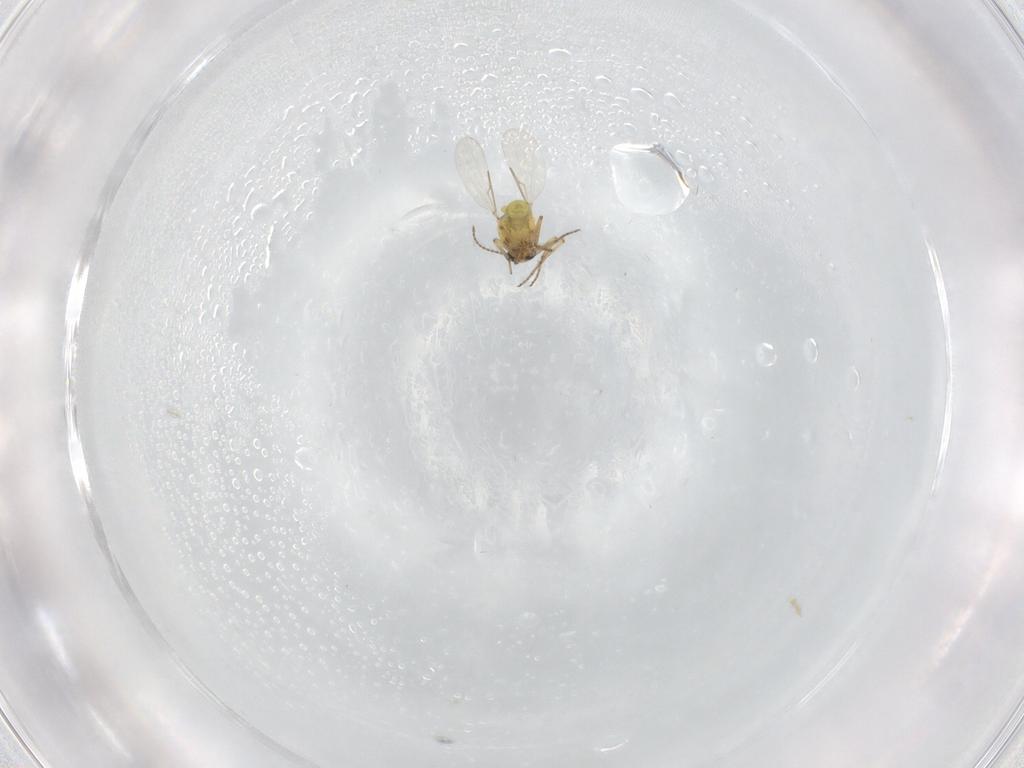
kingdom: Animalia
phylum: Arthropoda
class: Insecta
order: Diptera
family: Ceratopogonidae
